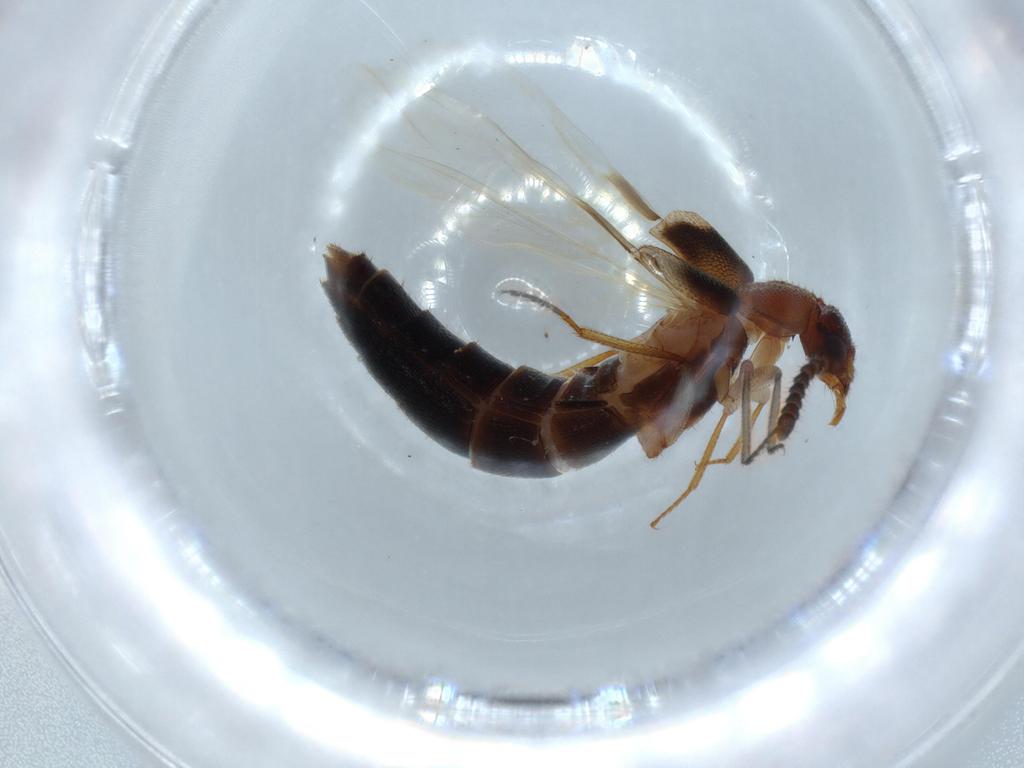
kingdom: Animalia
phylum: Arthropoda
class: Insecta
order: Coleoptera
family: Staphylinidae
